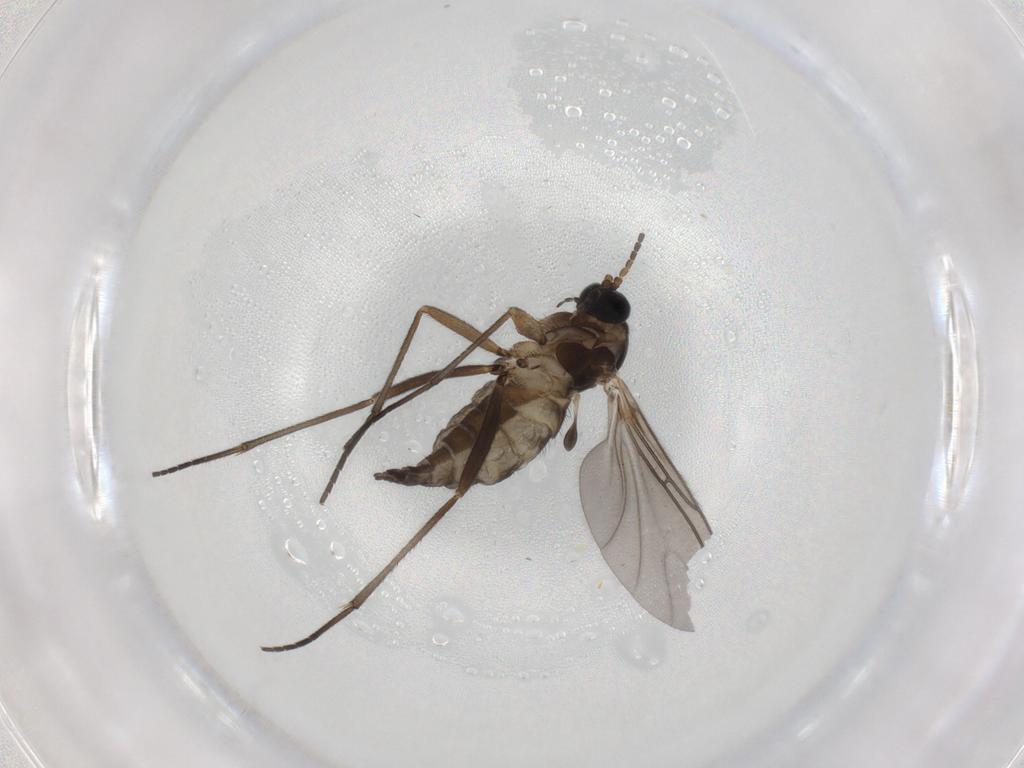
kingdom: Animalia
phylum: Arthropoda
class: Insecta
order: Diptera
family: Sciaridae
